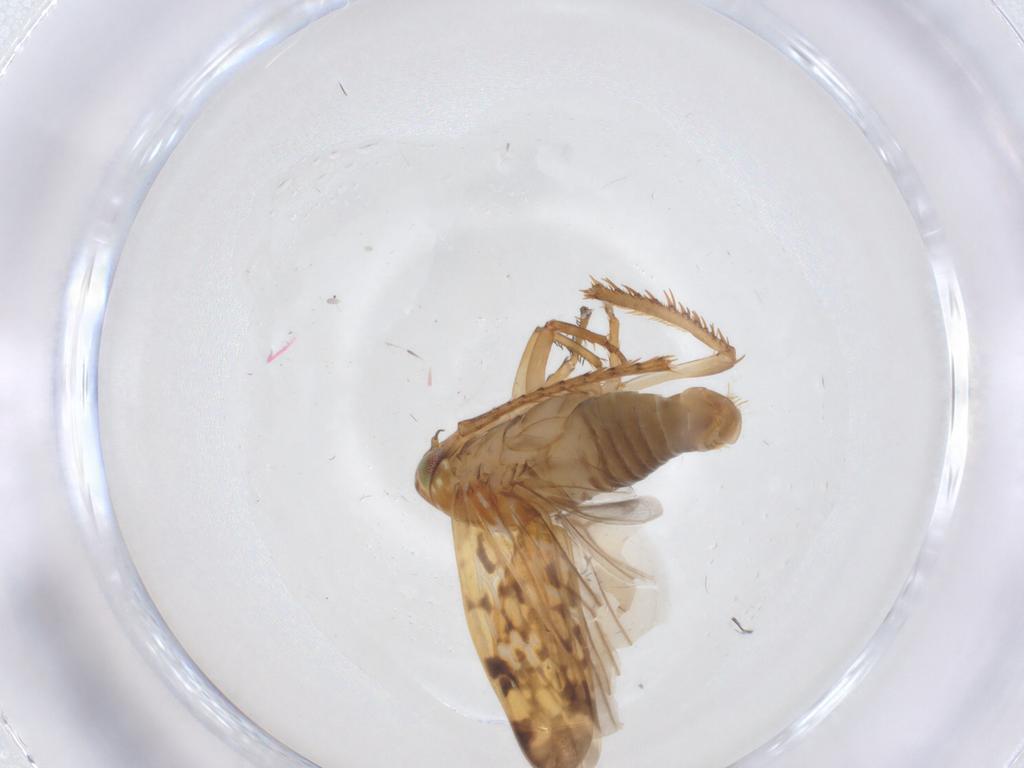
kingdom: Animalia
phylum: Arthropoda
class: Insecta
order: Hemiptera
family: Cicadellidae
